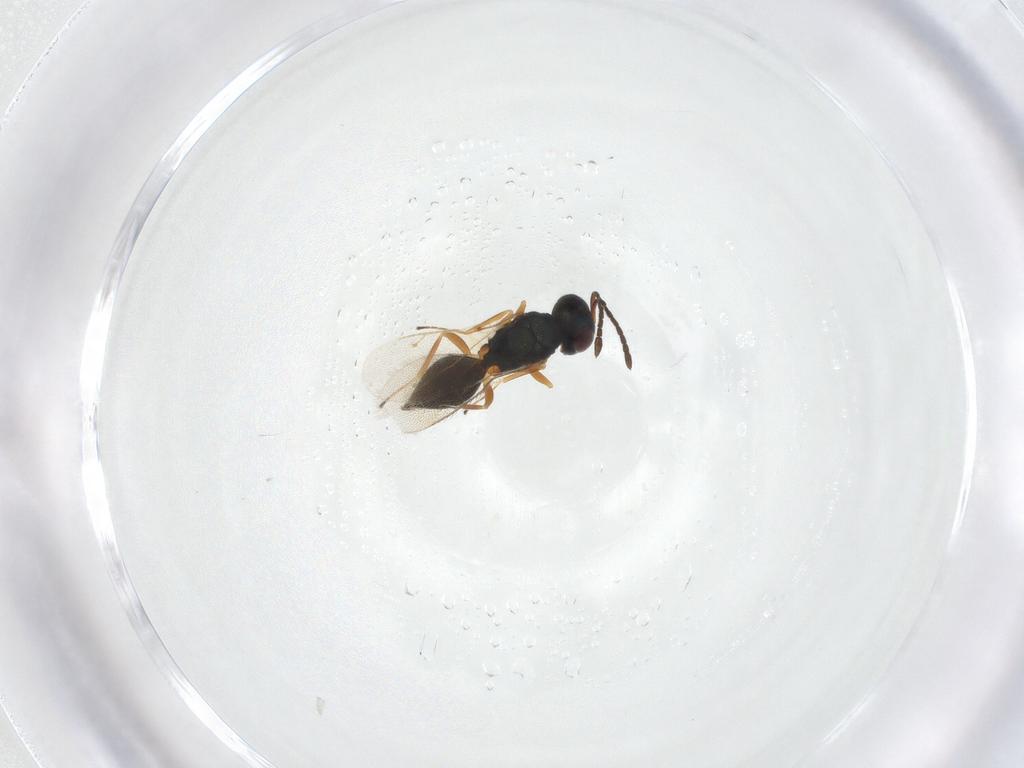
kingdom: Animalia
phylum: Arthropoda
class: Insecta
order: Hymenoptera
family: Pteromalidae
